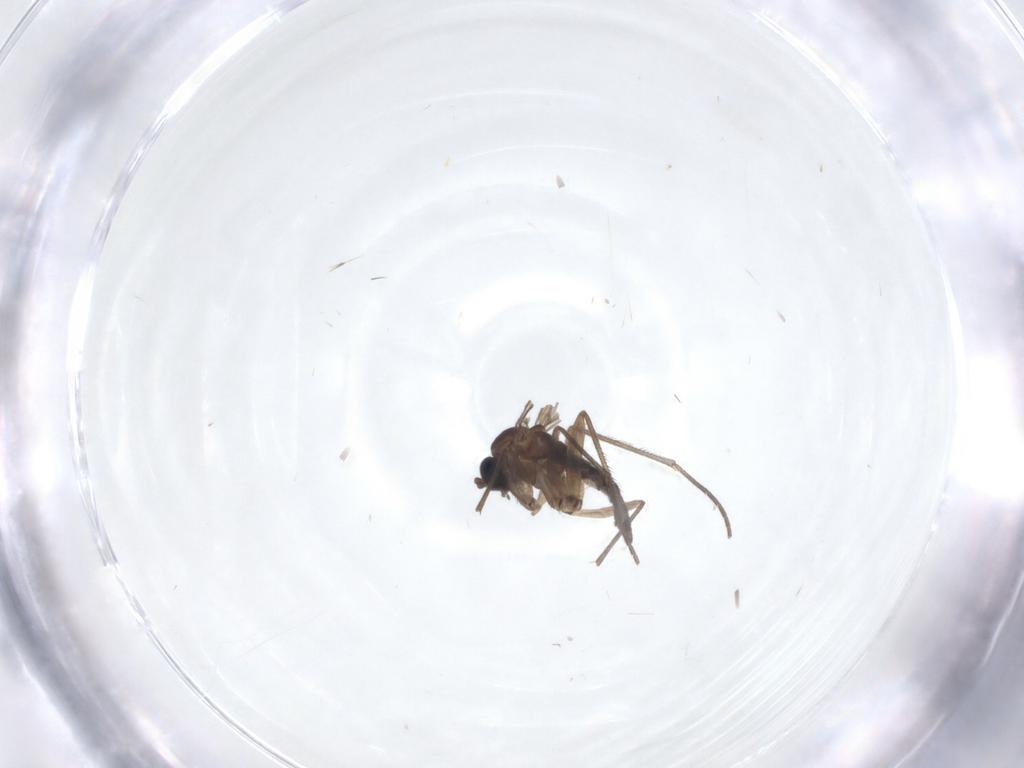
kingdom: Animalia
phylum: Arthropoda
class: Insecta
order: Diptera
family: Sciaridae
